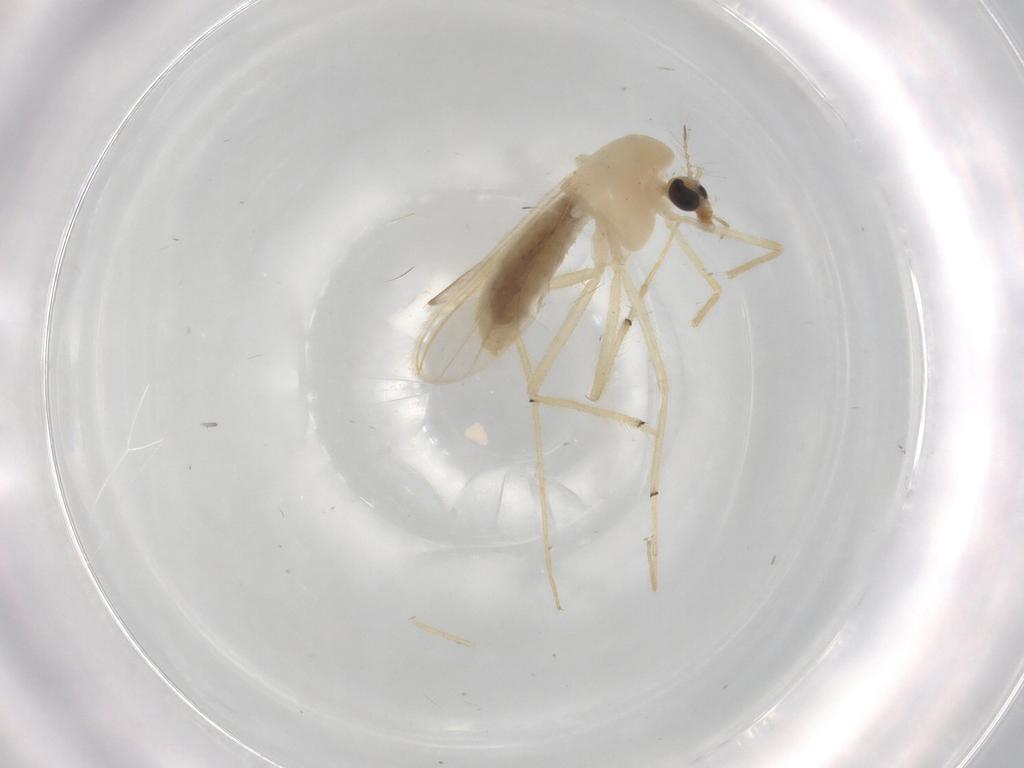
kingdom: Animalia
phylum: Arthropoda
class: Insecta
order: Diptera
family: Chironomidae
